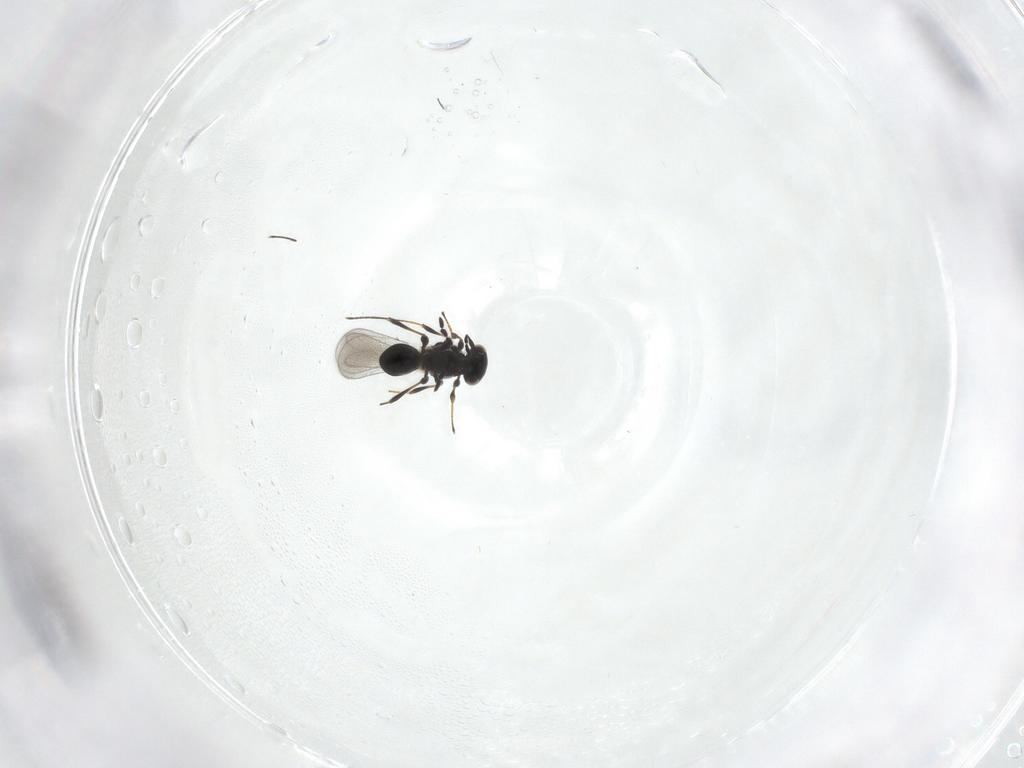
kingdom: Animalia
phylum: Arthropoda
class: Insecta
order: Hymenoptera
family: Platygastridae
